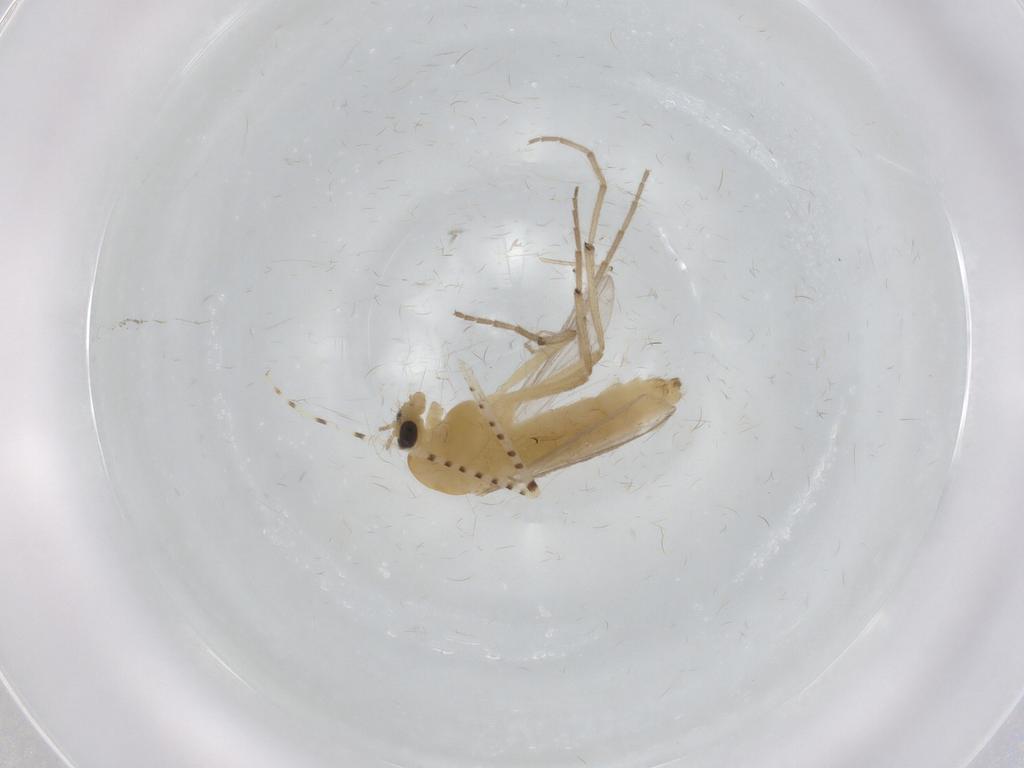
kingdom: Animalia
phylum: Arthropoda
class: Insecta
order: Diptera
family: Chironomidae
